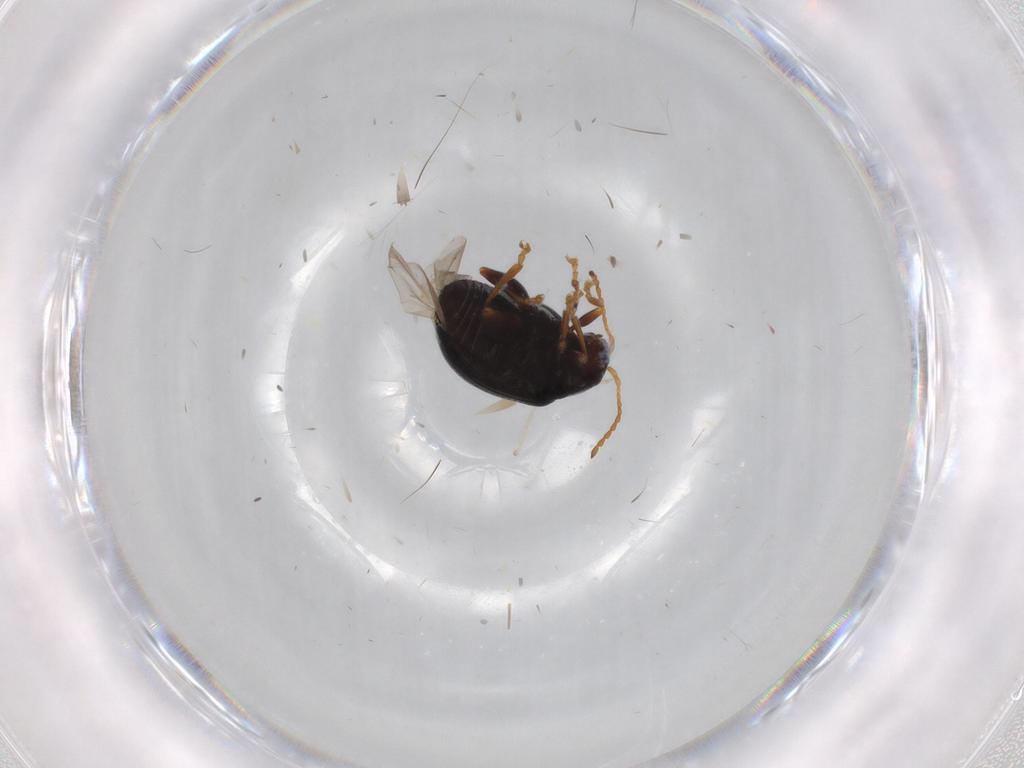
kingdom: Animalia
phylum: Arthropoda
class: Insecta
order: Coleoptera
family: Carabidae
